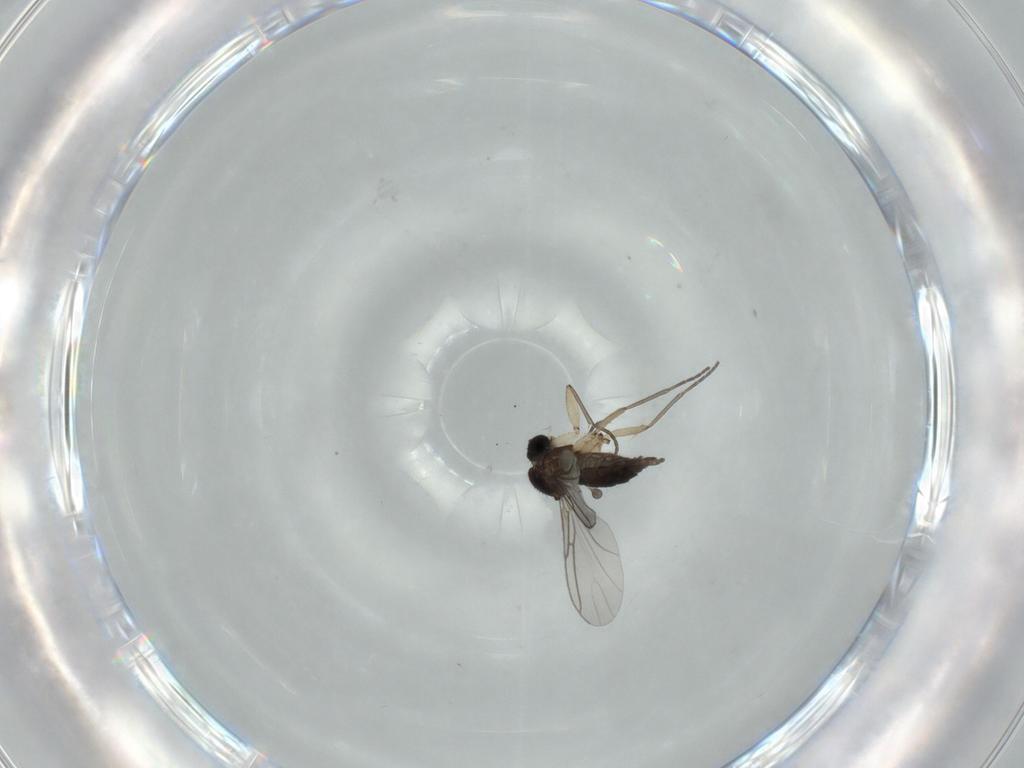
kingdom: Animalia
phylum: Arthropoda
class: Insecta
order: Diptera
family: Sciaridae
